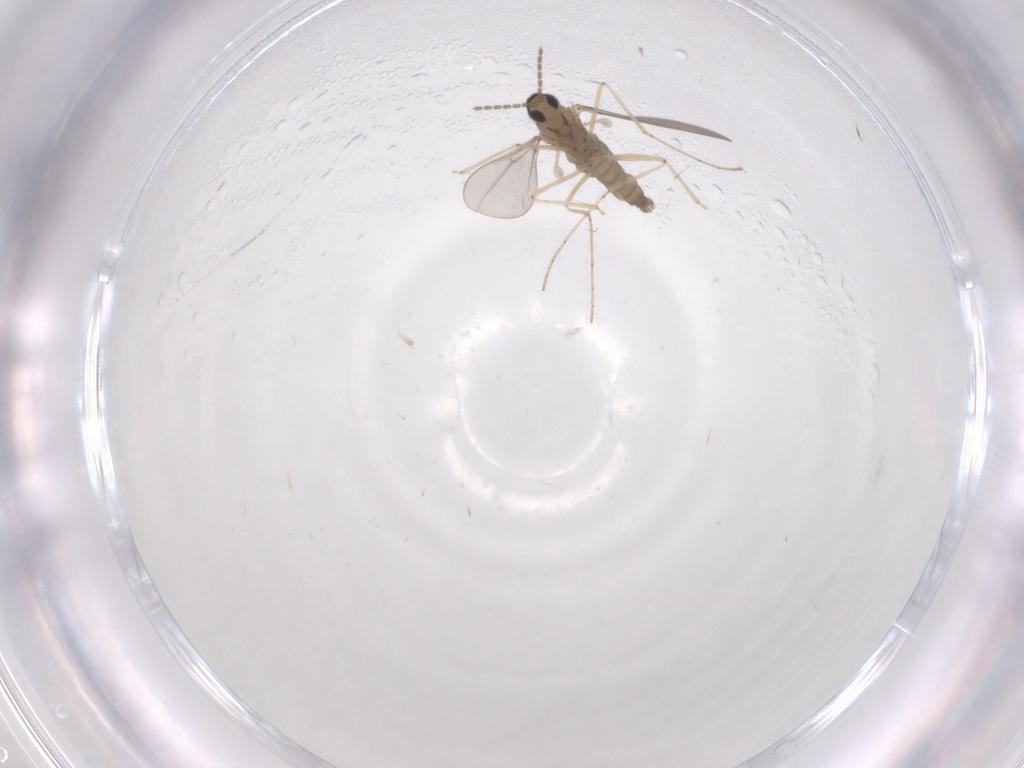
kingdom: Animalia
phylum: Arthropoda
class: Insecta
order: Diptera
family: Cecidomyiidae
